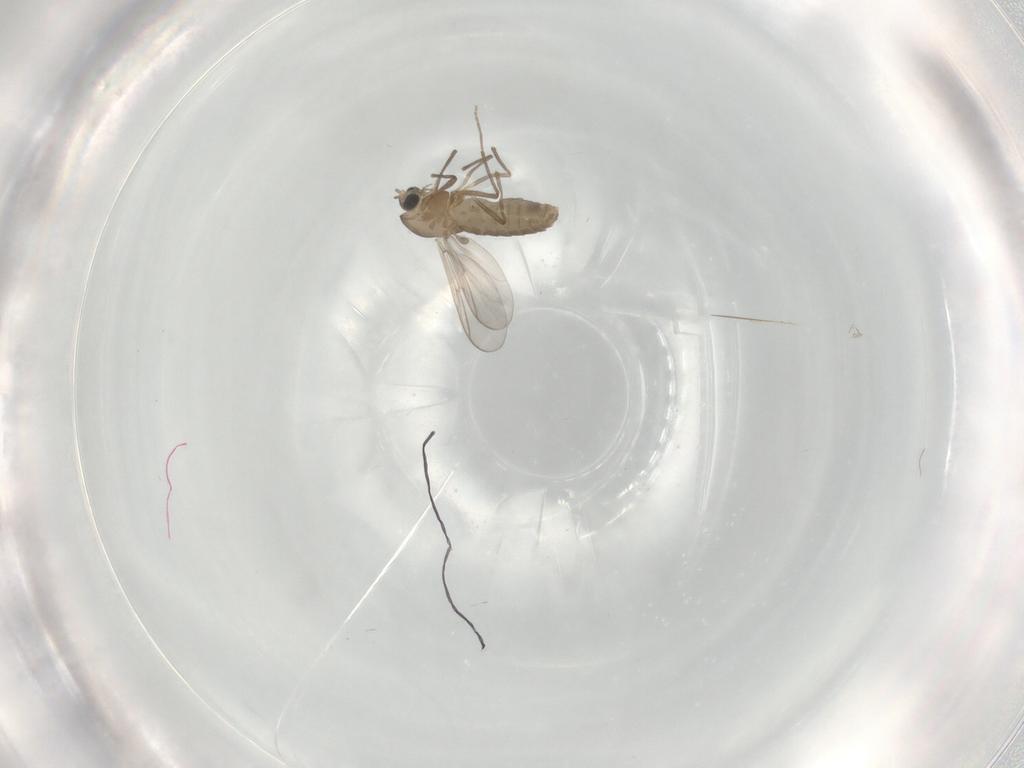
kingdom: Animalia
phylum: Arthropoda
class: Insecta
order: Diptera
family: Chironomidae
